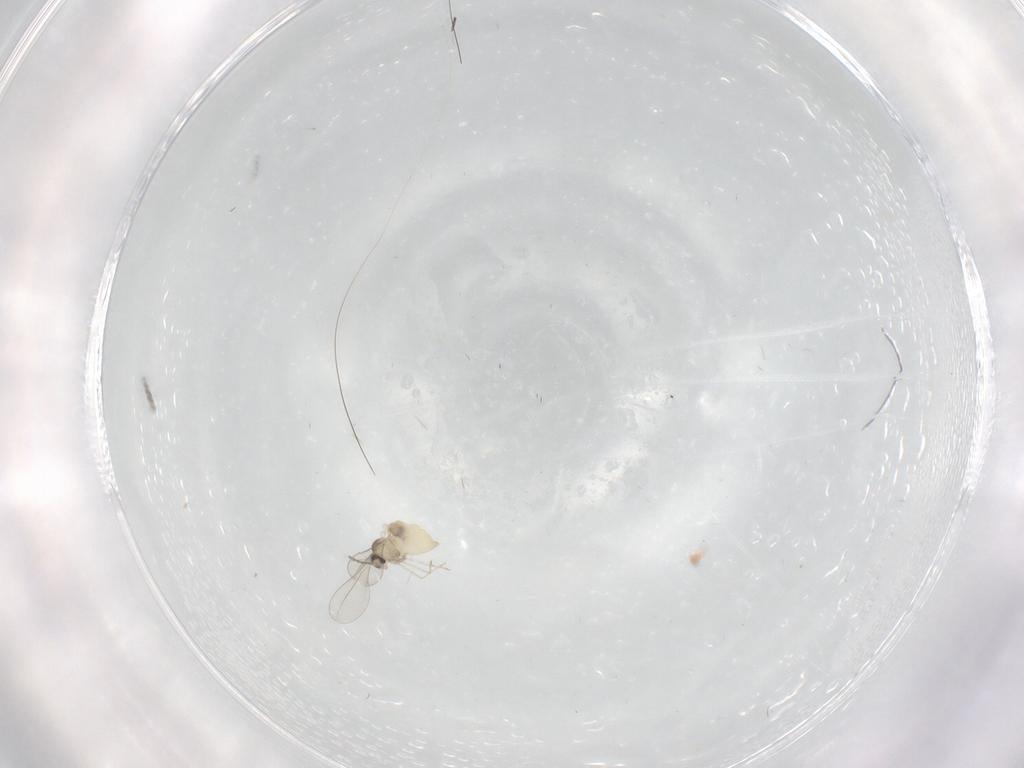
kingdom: Animalia
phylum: Arthropoda
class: Insecta
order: Diptera
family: Cecidomyiidae
